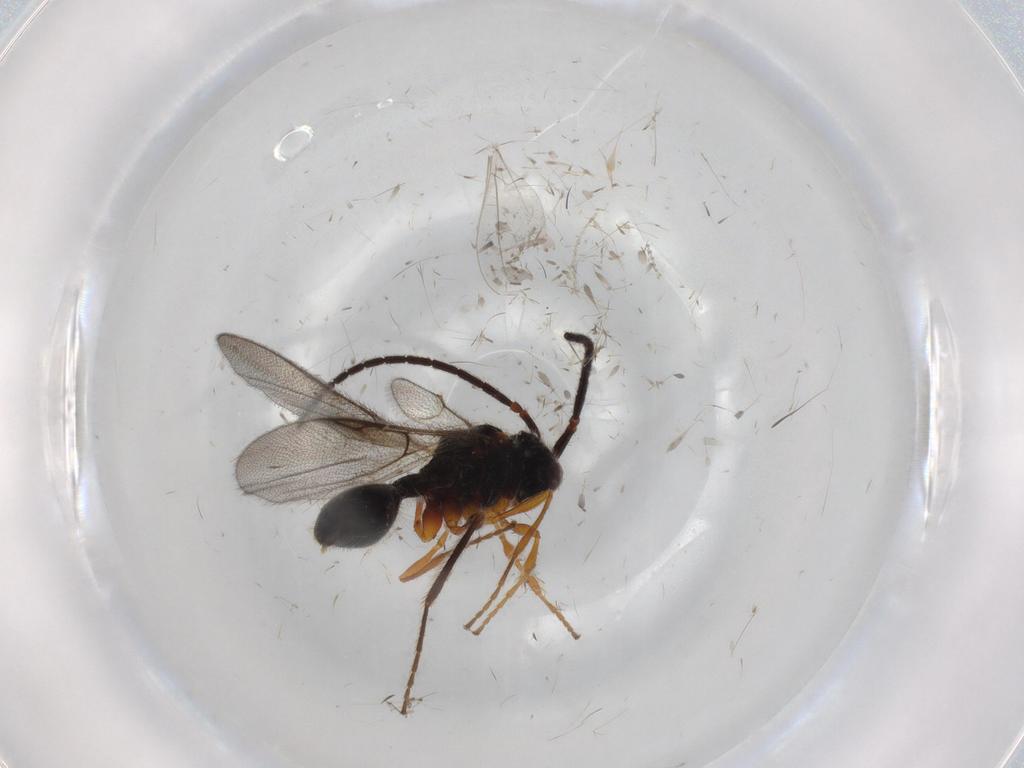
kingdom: Animalia
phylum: Arthropoda
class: Insecta
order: Hymenoptera
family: Diapriidae
